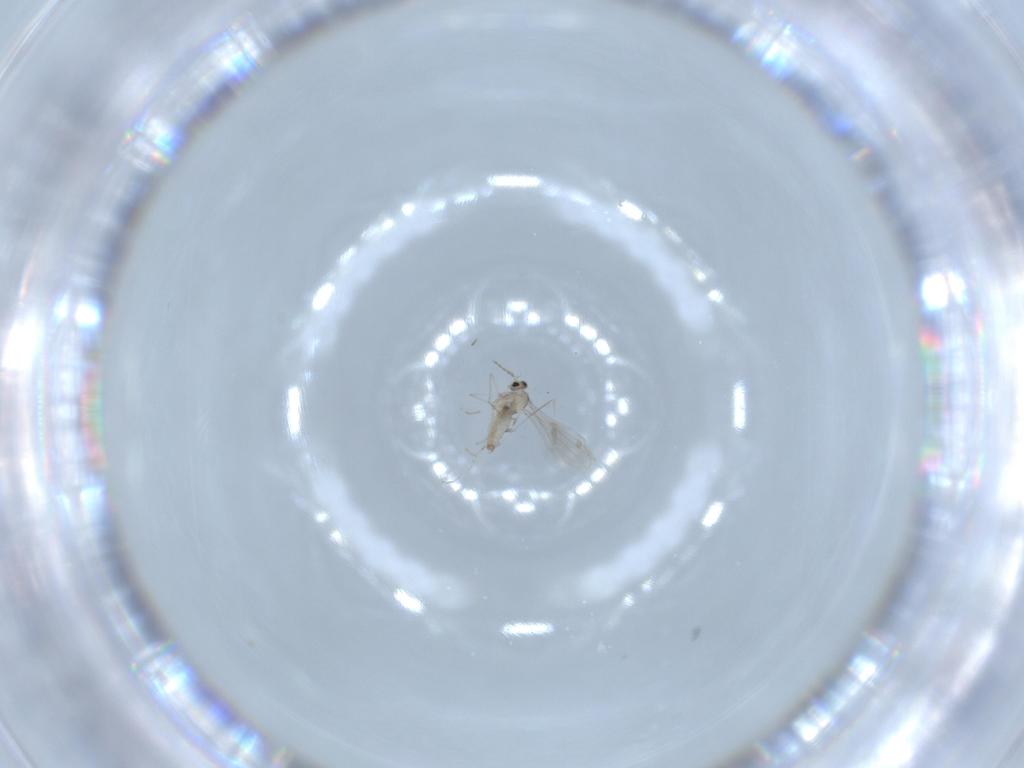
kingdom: Animalia
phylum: Arthropoda
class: Insecta
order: Diptera
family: Cecidomyiidae
